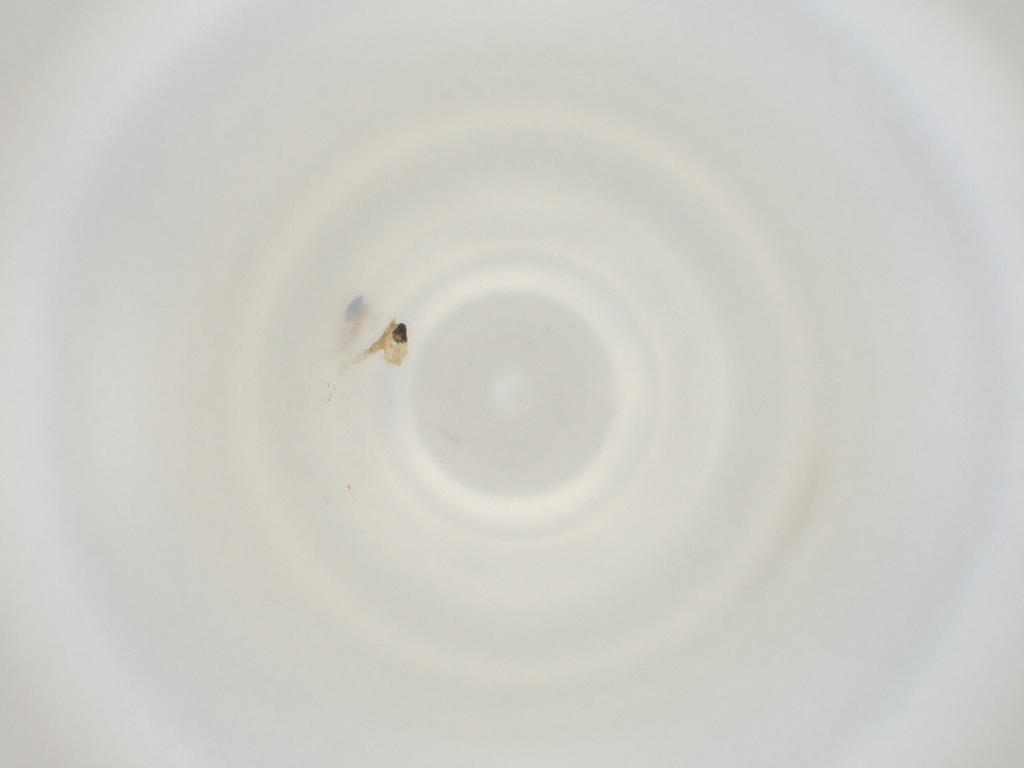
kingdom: Animalia
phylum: Arthropoda
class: Insecta
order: Diptera
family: Cecidomyiidae
